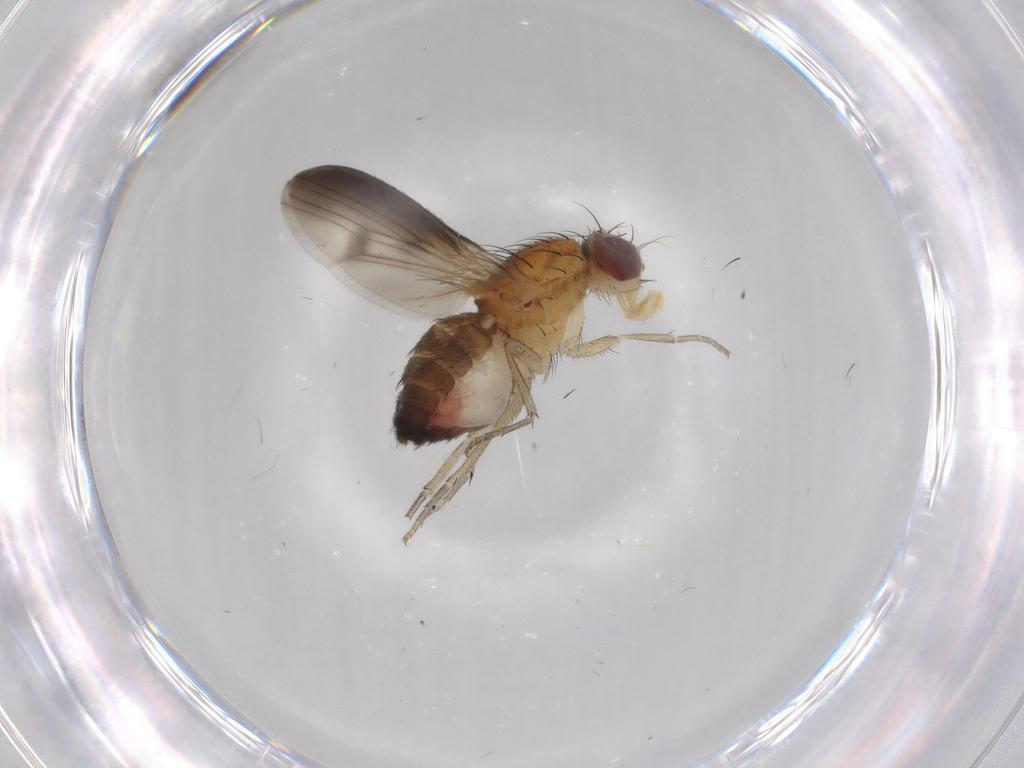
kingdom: Animalia
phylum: Arthropoda
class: Insecta
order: Diptera
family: Heleomyzidae
